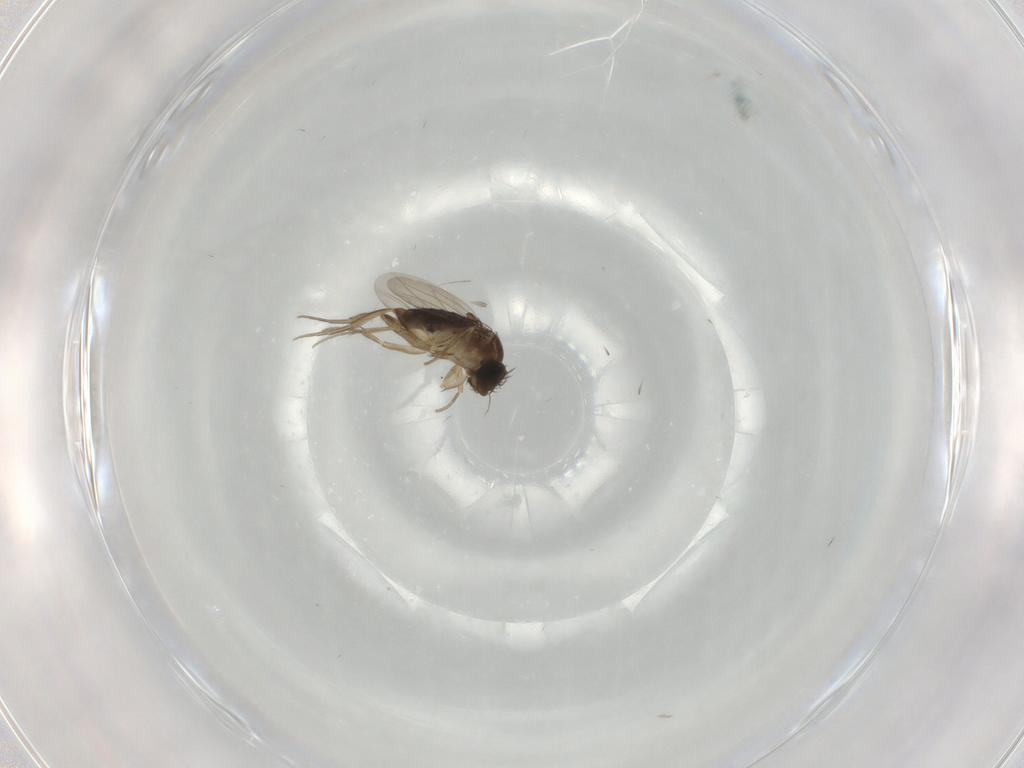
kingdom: Animalia
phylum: Arthropoda
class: Insecta
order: Diptera
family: Phoridae
